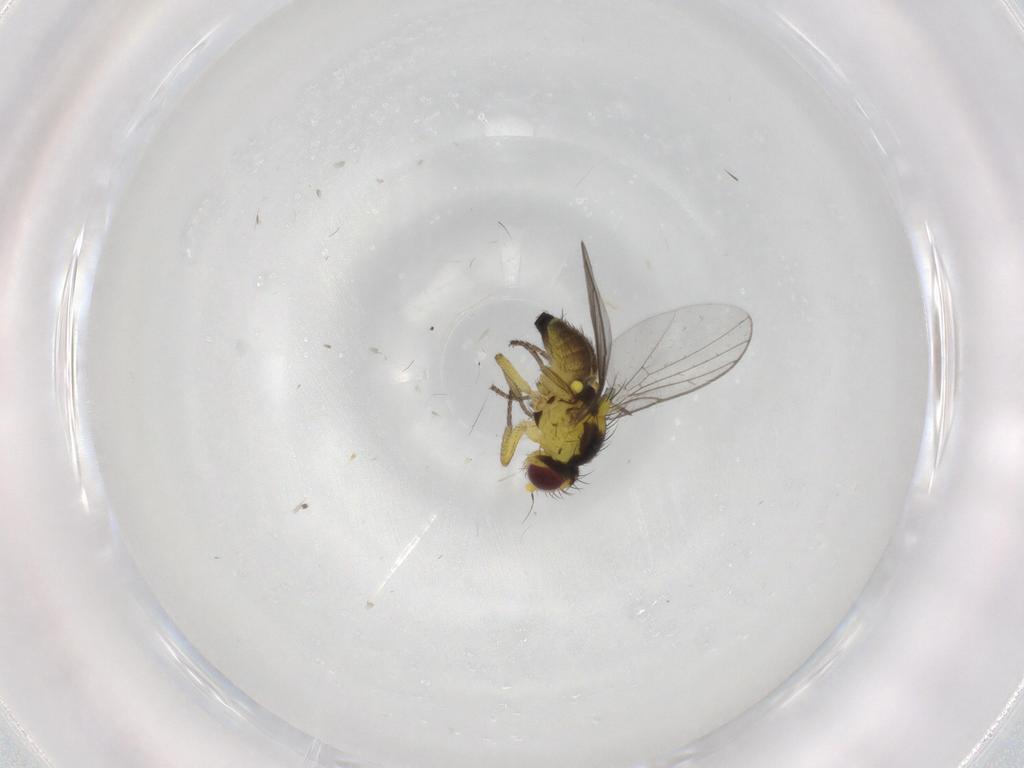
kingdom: Animalia
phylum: Arthropoda
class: Insecta
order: Diptera
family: Agromyzidae
